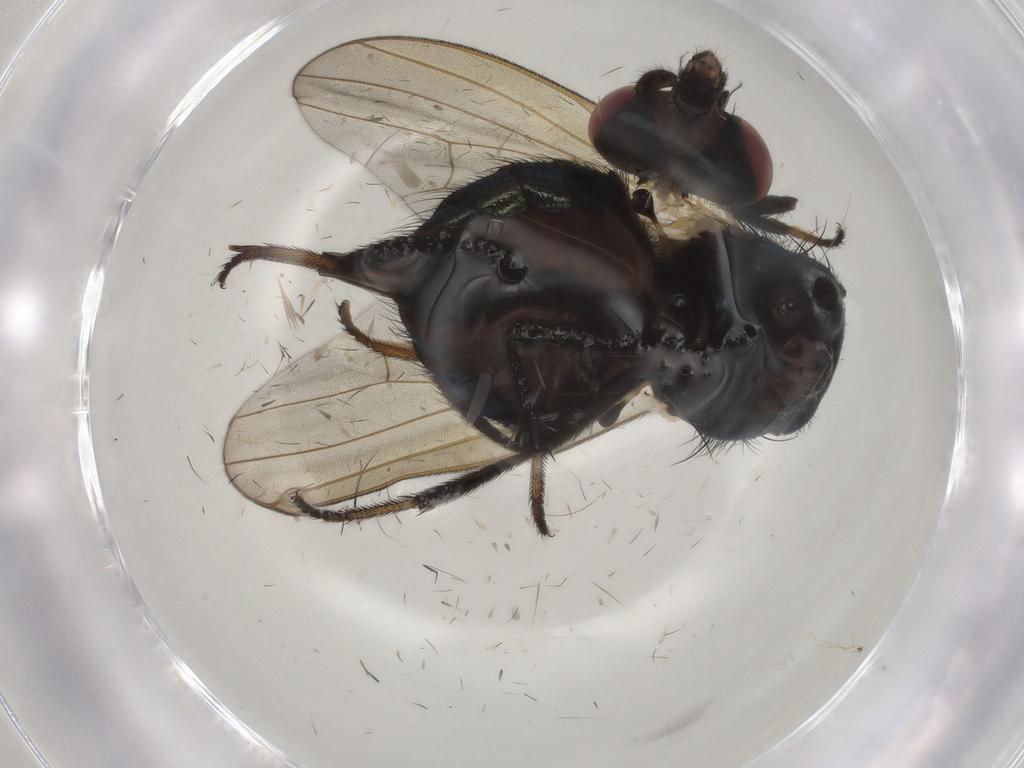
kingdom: Animalia
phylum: Arthropoda
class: Insecta
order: Diptera
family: Lonchaeidae
